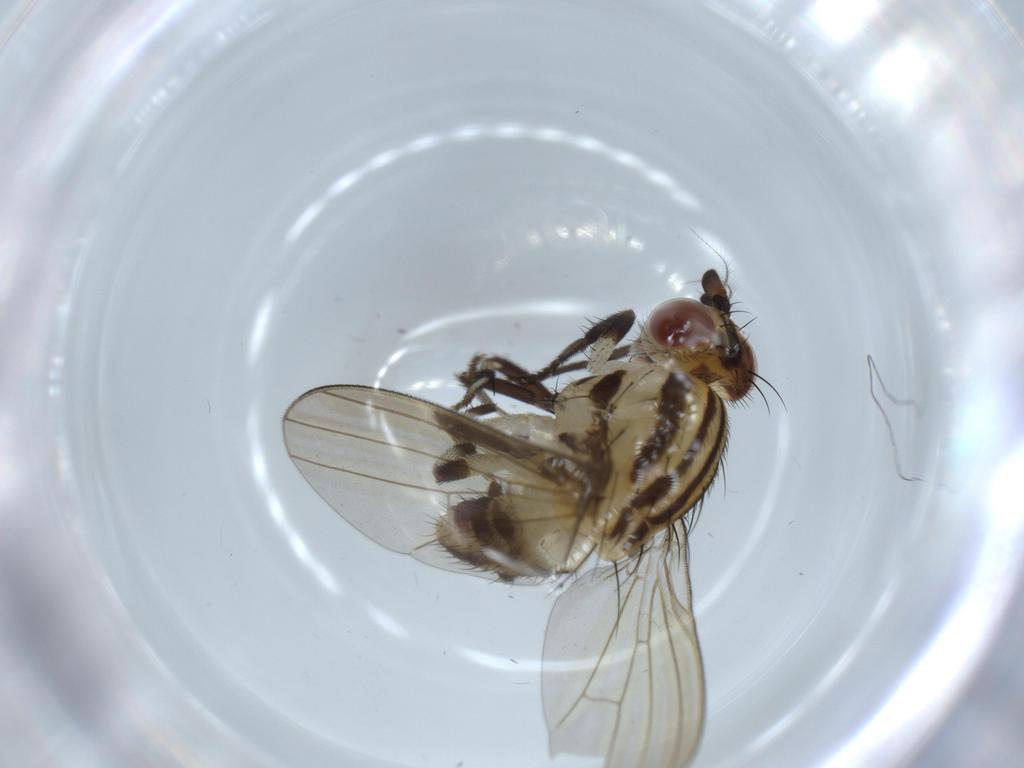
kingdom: Animalia
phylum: Arthropoda
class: Insecta
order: Diptera
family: Lauxaniidae
